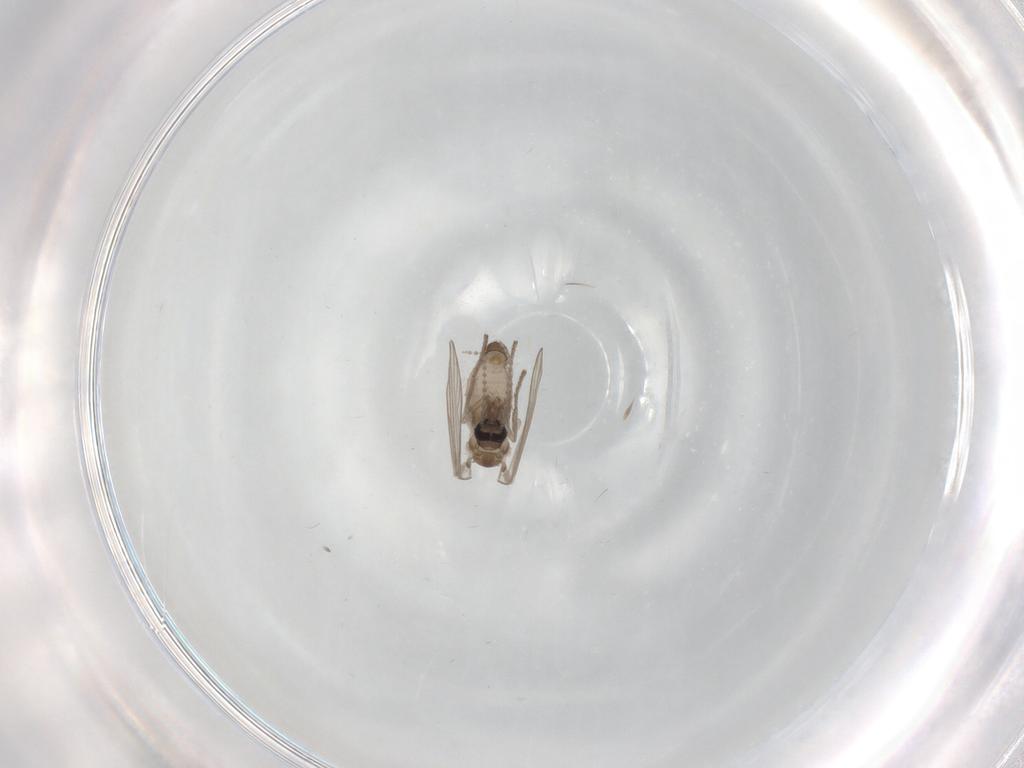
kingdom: Animalia
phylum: Arthropoda
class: Insecta
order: Diptera
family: Psychodidae
